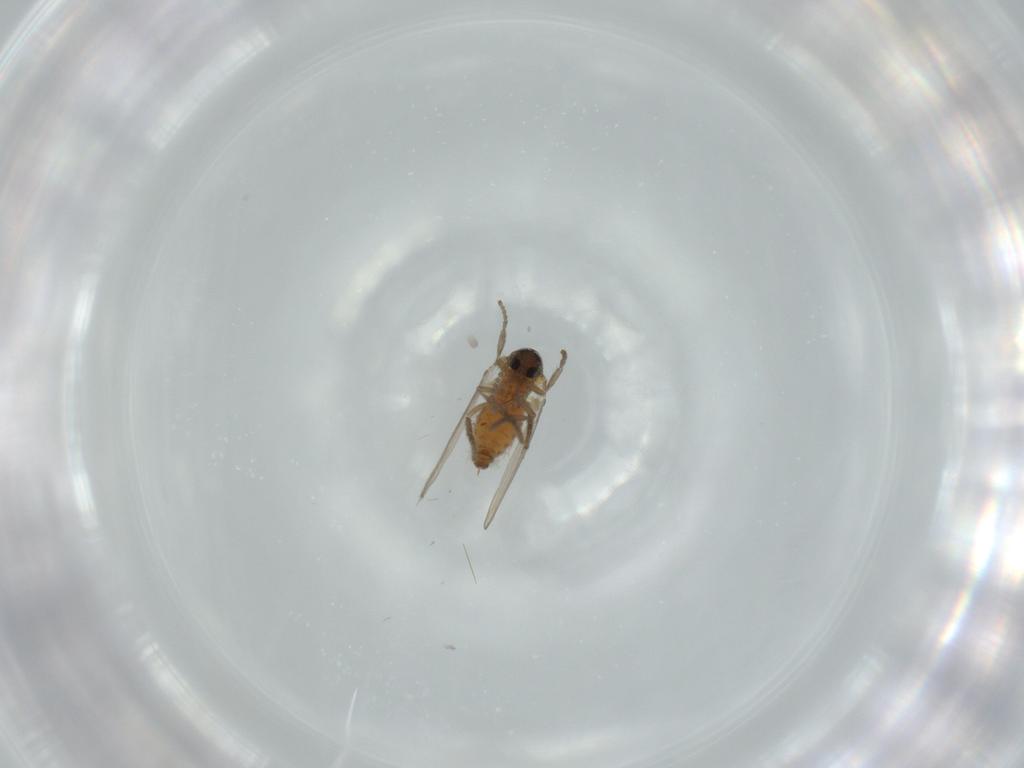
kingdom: Animalia
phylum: Arthropoda
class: Insecta
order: Diptera
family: Psychodidae
